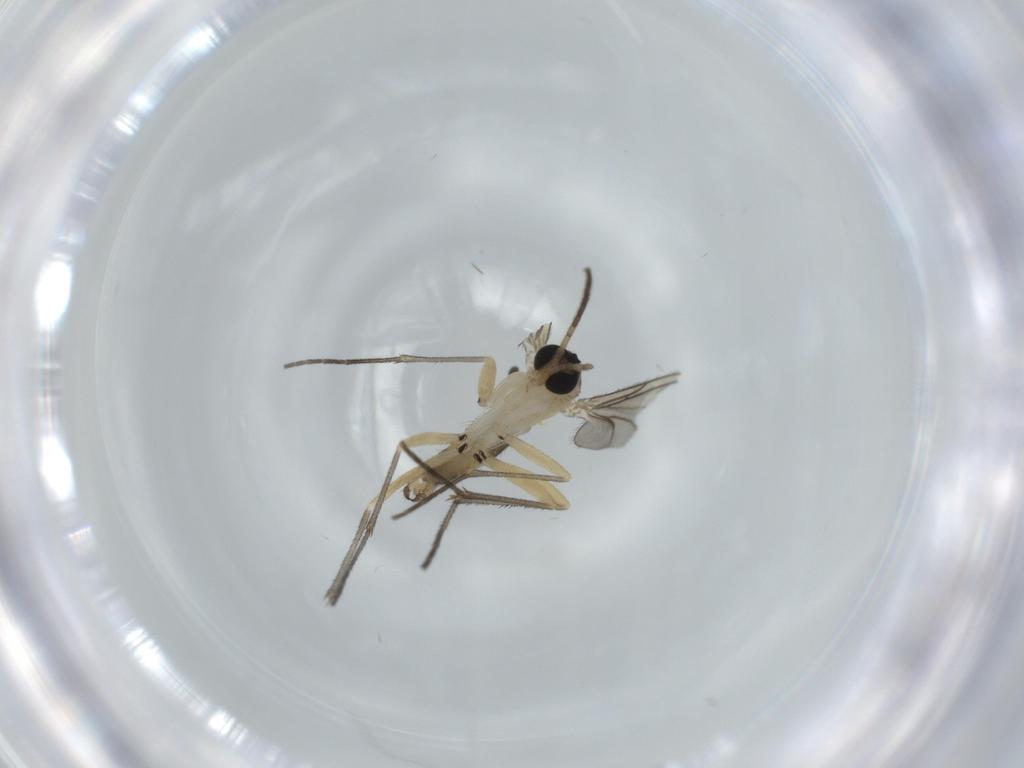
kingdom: Animalia
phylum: Arthropoda
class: Insecta
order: Diptera
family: Sciaridae
